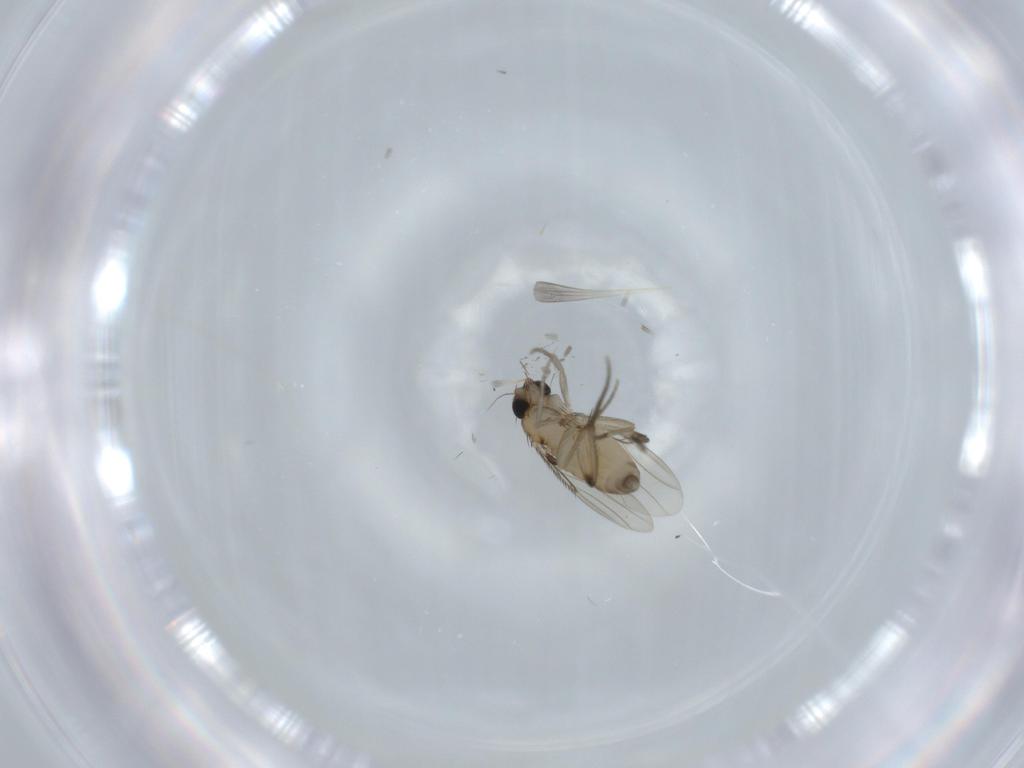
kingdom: Animalia
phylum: Arthropoda
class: Insecta
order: Diptera
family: Phoridae
